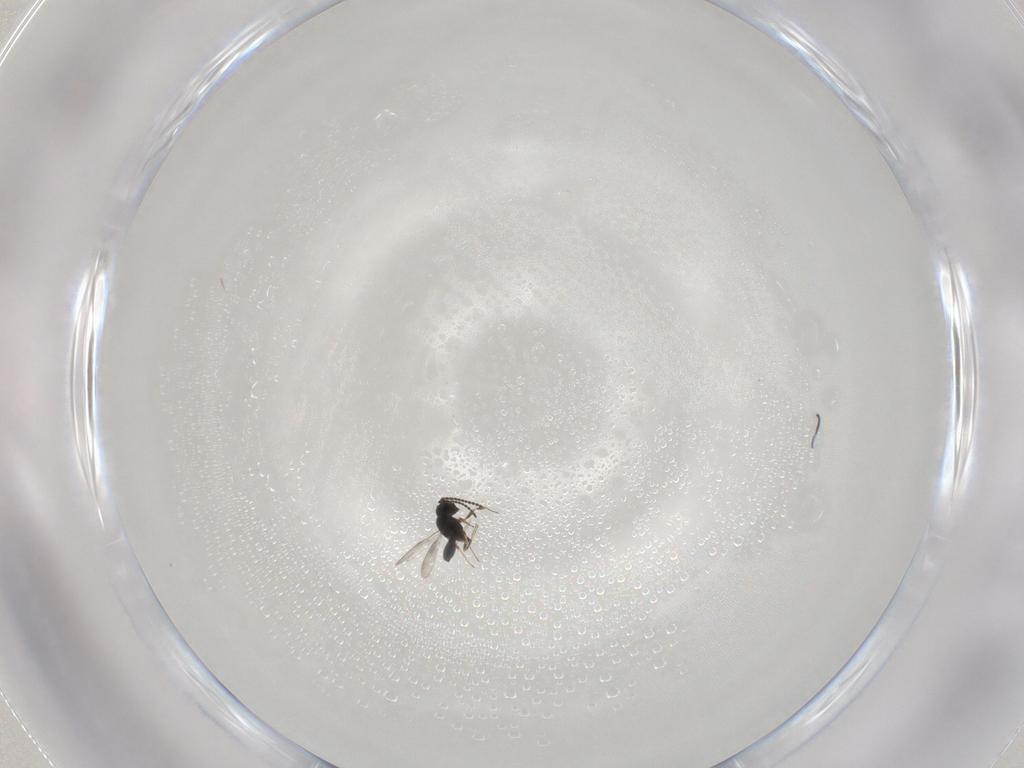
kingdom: Animalia
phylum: Arthropoda
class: Insecta
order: Hymenoptera
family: Scelionidae
